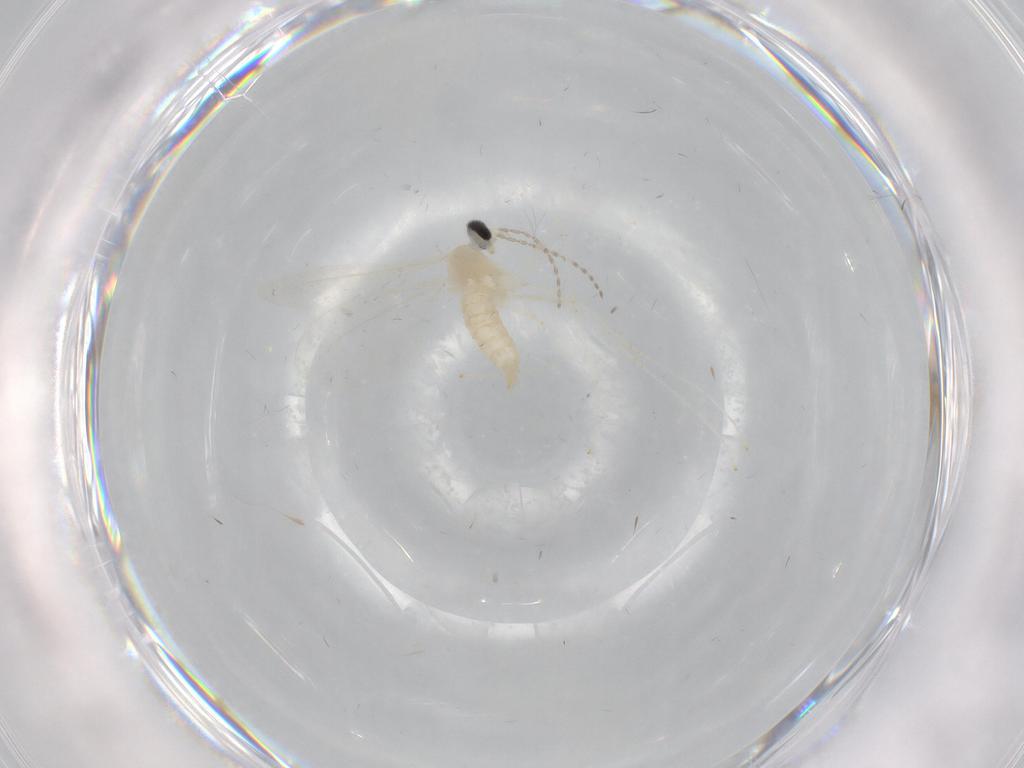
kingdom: Animalia
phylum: Arthropoda
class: Insecta
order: Diptera
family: Cecidomyiidae
